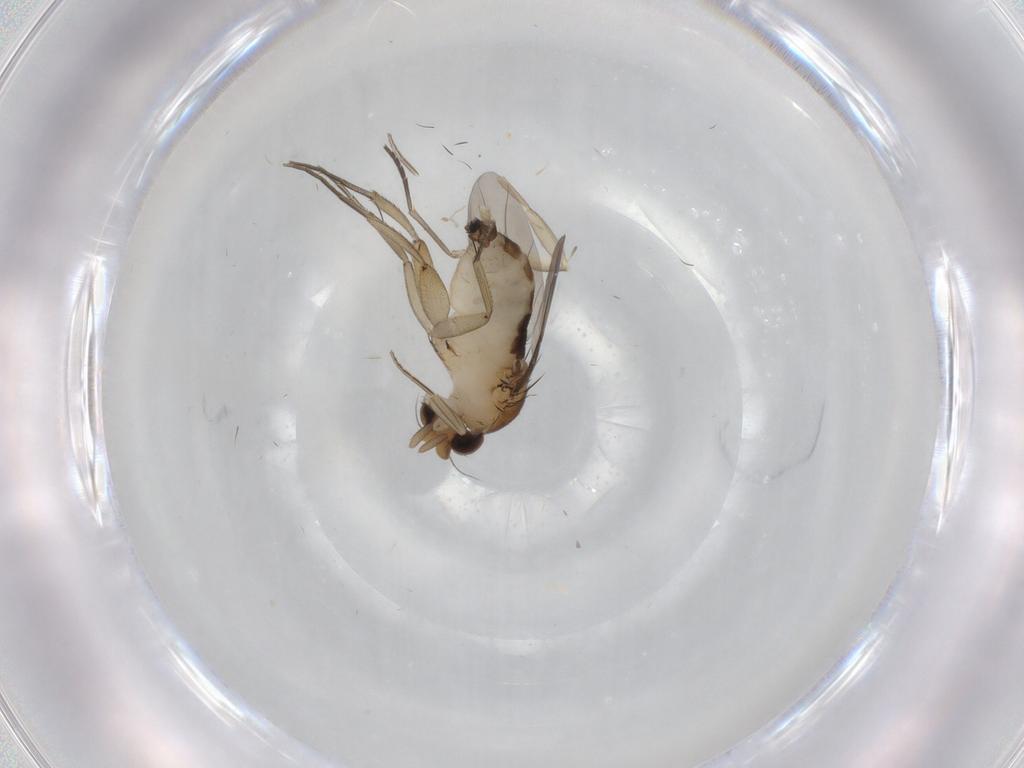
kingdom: Animalia
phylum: Arthropoda
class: Insecta
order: Diptera
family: Phoridae
